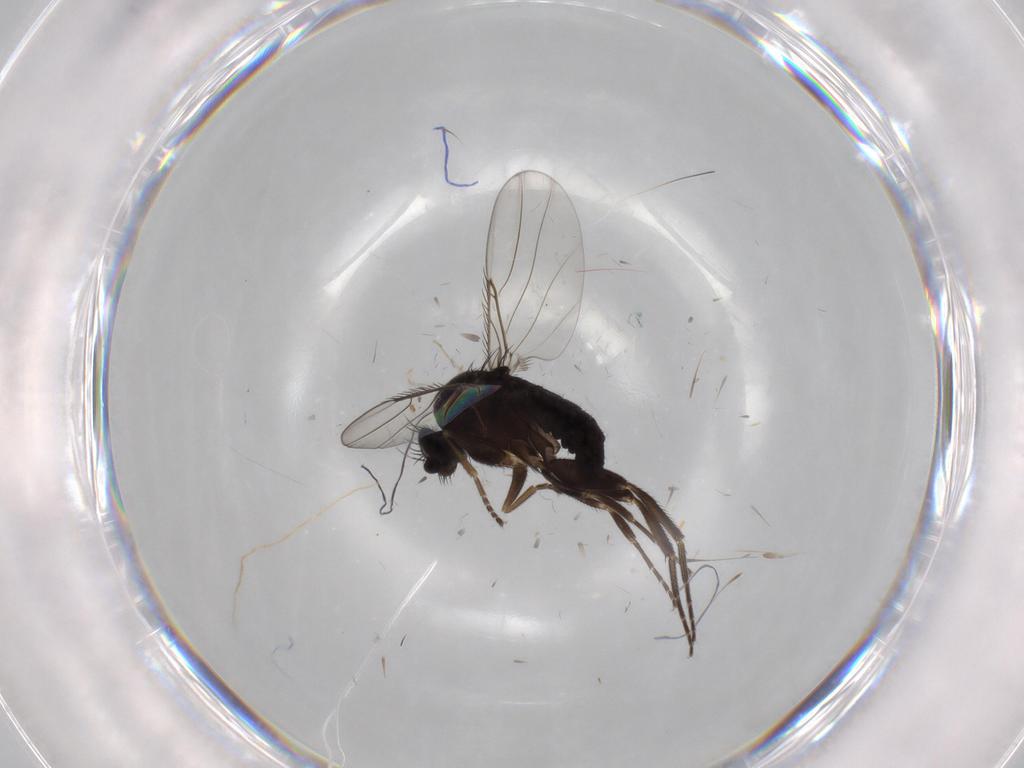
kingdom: Animalia
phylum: Arthropoda
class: Insecta
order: Diptera
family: Phoridae
